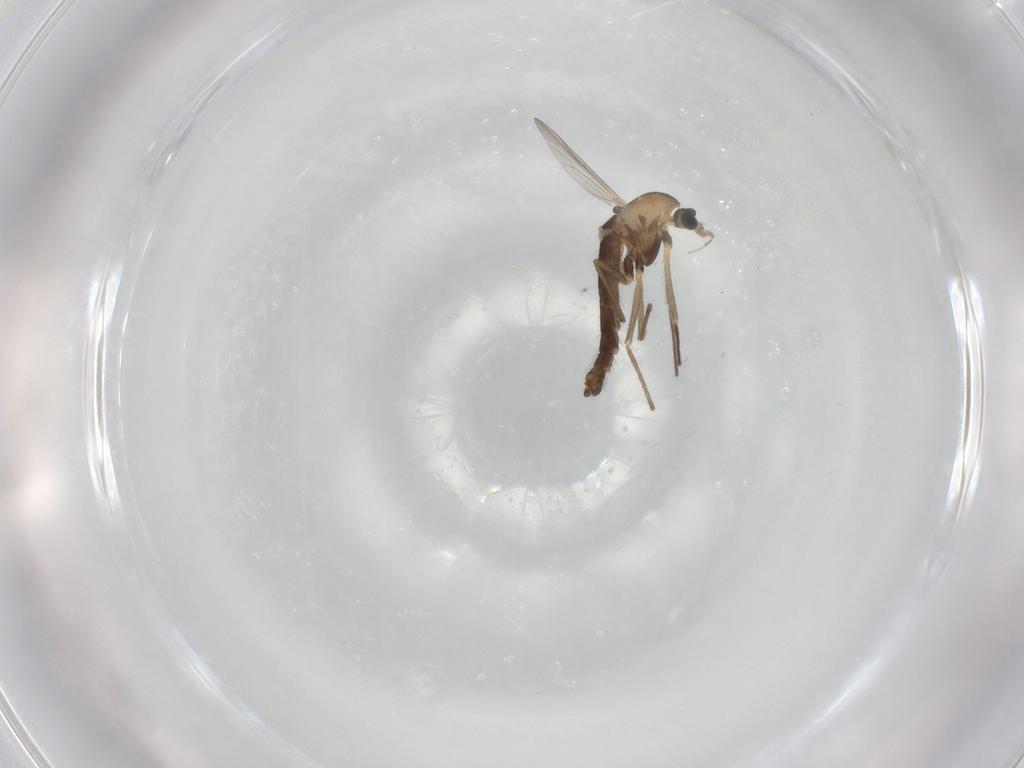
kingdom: Animalia
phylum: Arthropoda
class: Insecta
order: Diptera
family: Chironomidae
